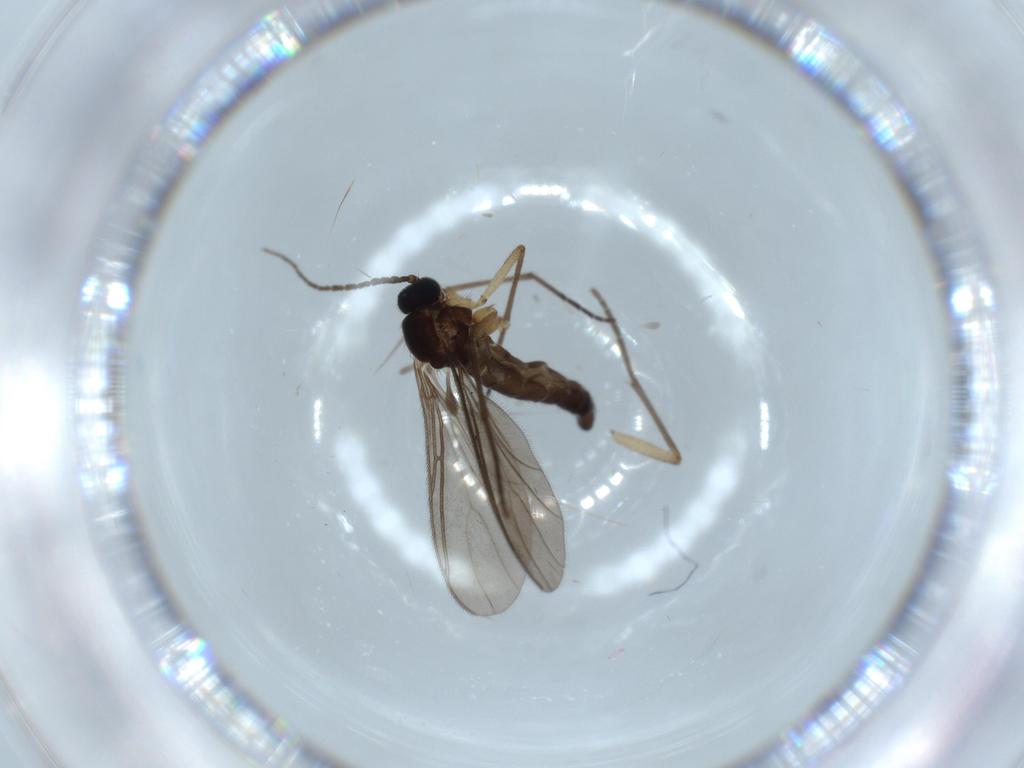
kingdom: Animalia
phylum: Arthropoda
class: Insecta
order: Diptera
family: Sciaridae
